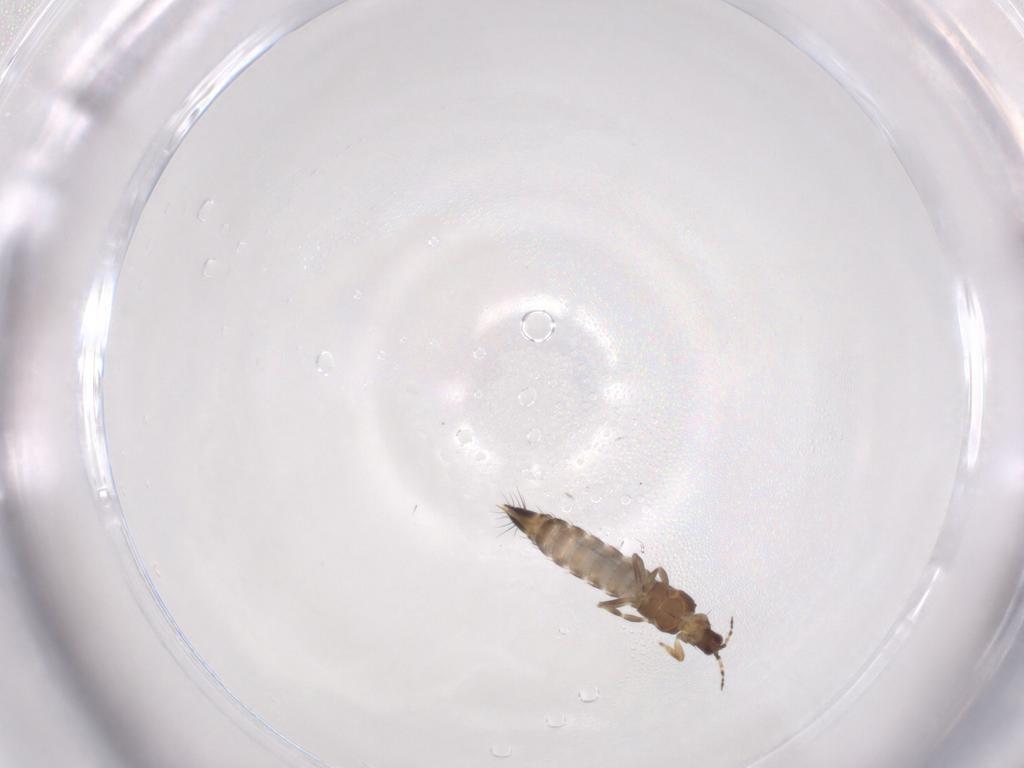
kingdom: Animalia
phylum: Arthropoda
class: Insecta
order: Thysanoptera
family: Thripidae
